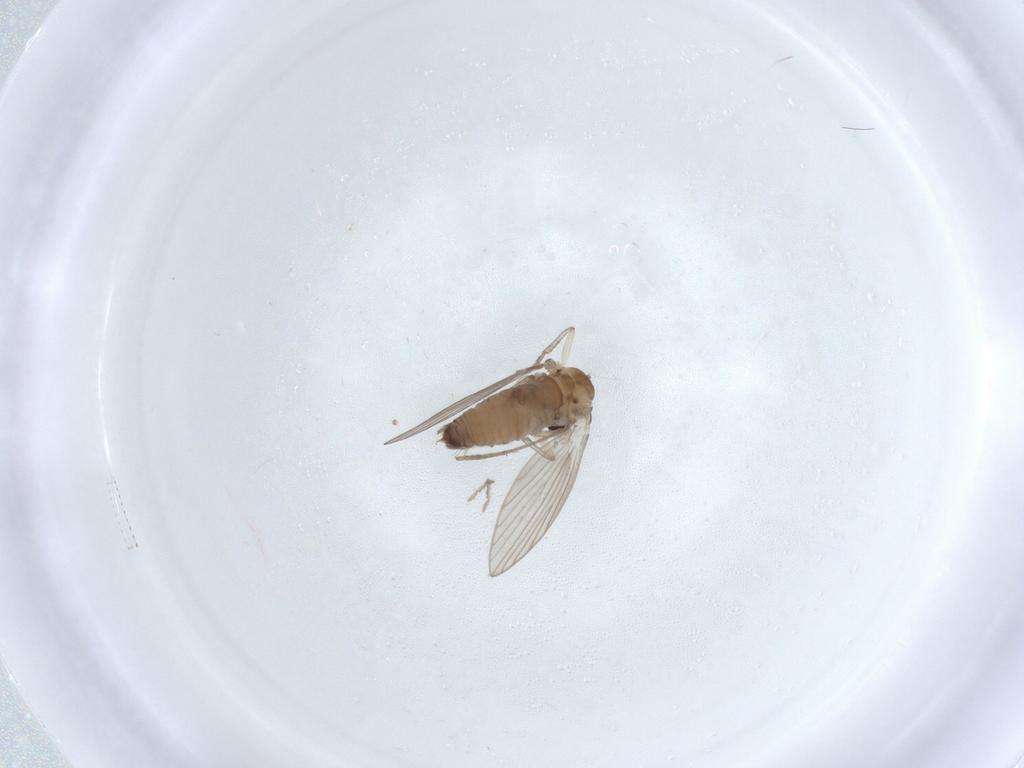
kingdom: Animalia
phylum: Arthropoda
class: Insecta
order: Diptera
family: Psychodidae
